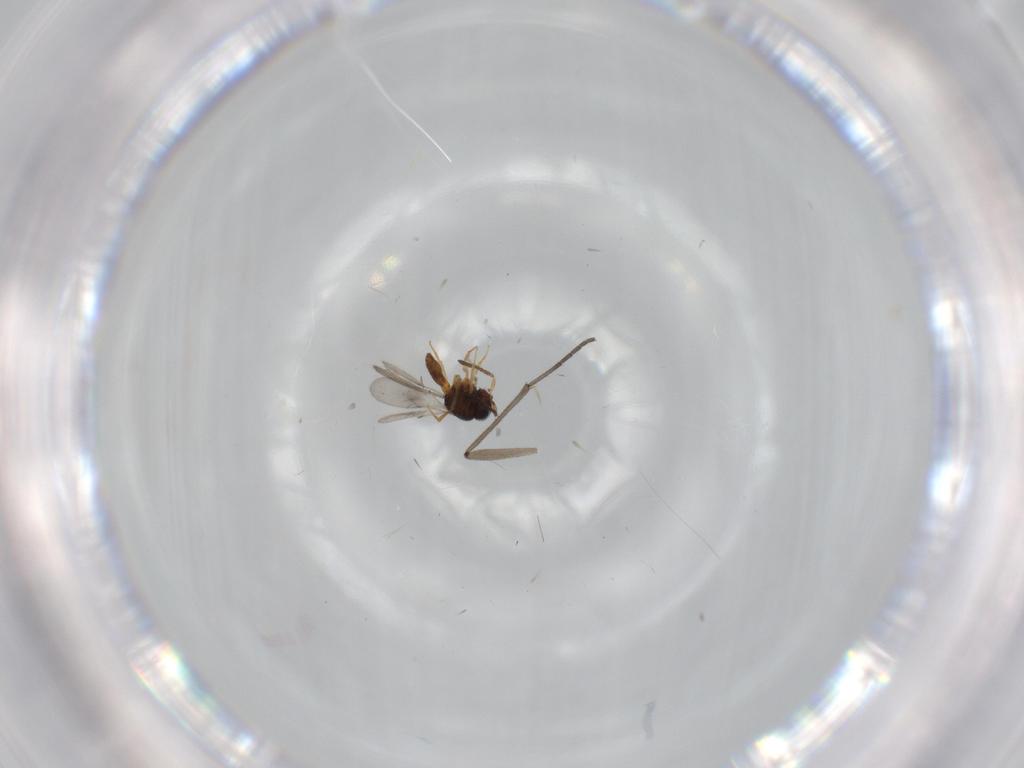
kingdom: Animalia
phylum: Arthropoda
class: Insecta
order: Hymenoptera
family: Scelionidae
